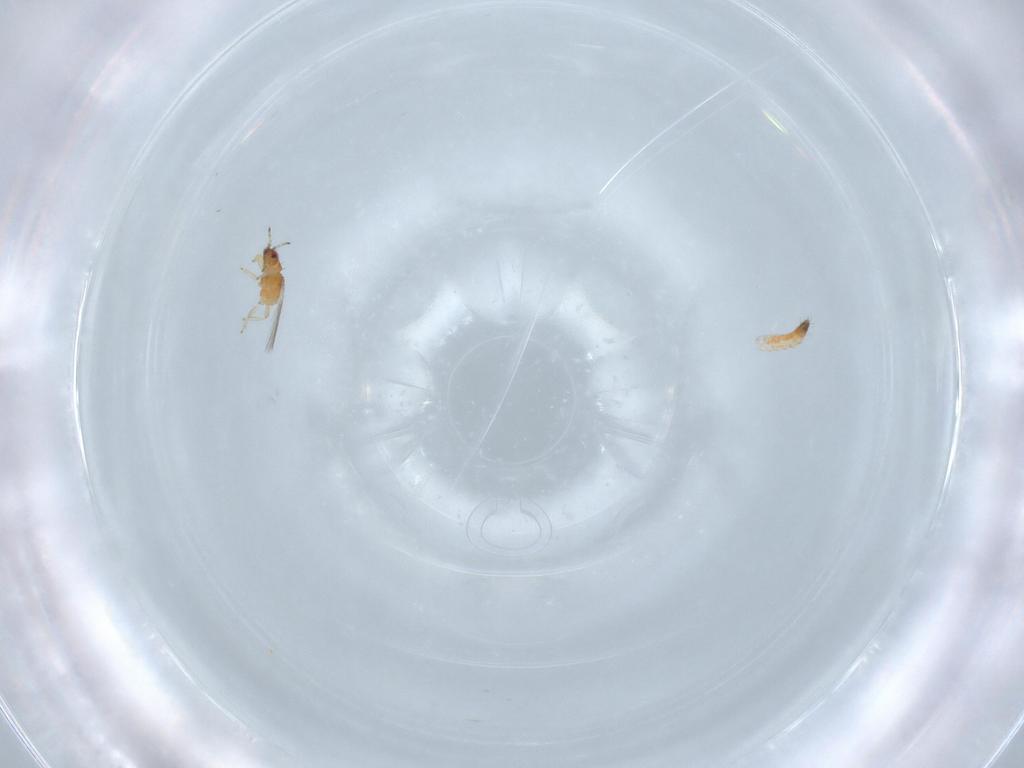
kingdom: Animalia
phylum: Arthropoda
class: Insecta
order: Thysanoptera
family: Thripidae
